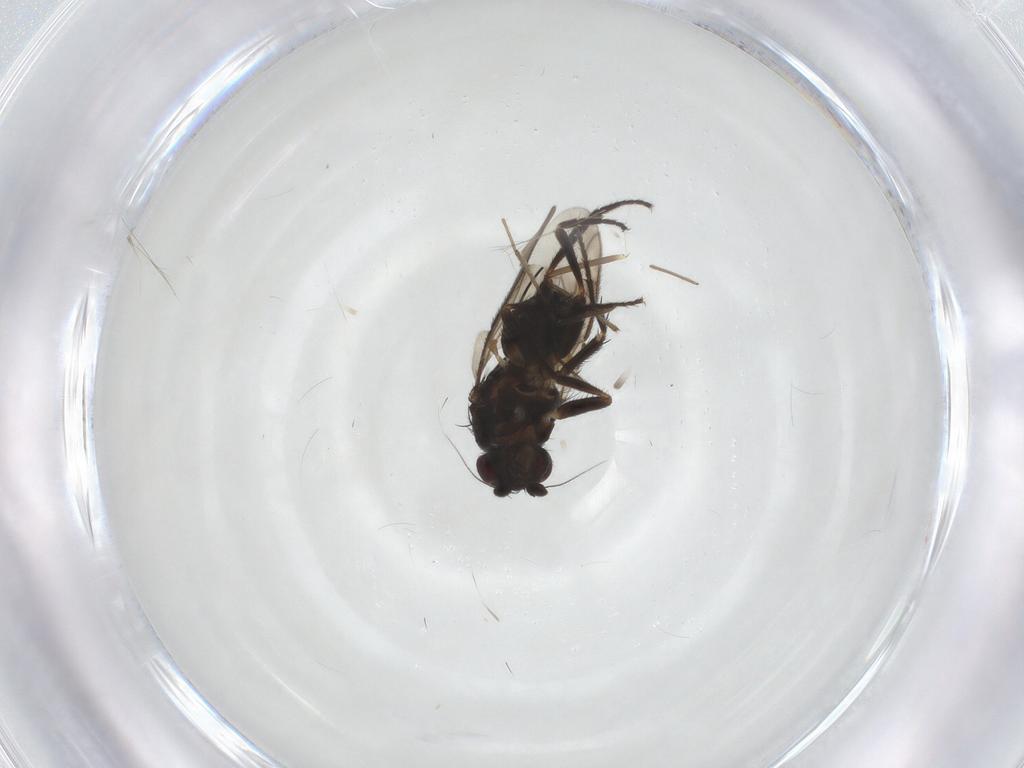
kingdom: Animalia
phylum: Arthropoda
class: Insecta
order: Diptera
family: Sphaeroceridae
